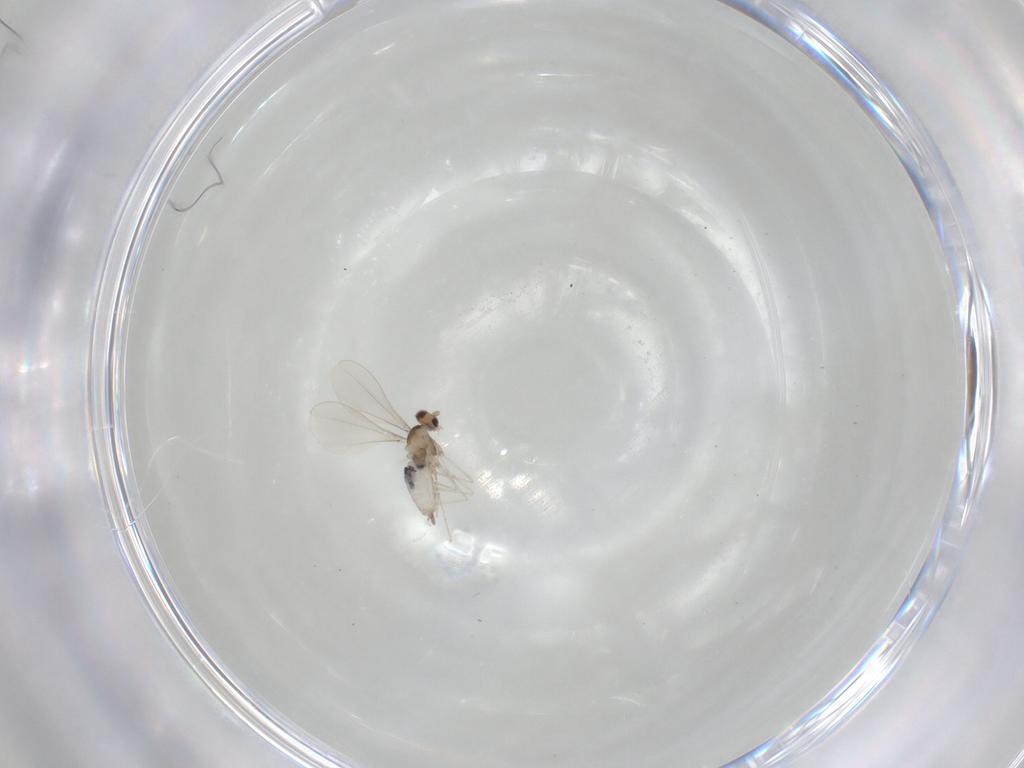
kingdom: Animalia
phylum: Arthropoda
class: Insecta
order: Diptera
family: Cecidomyiidae
